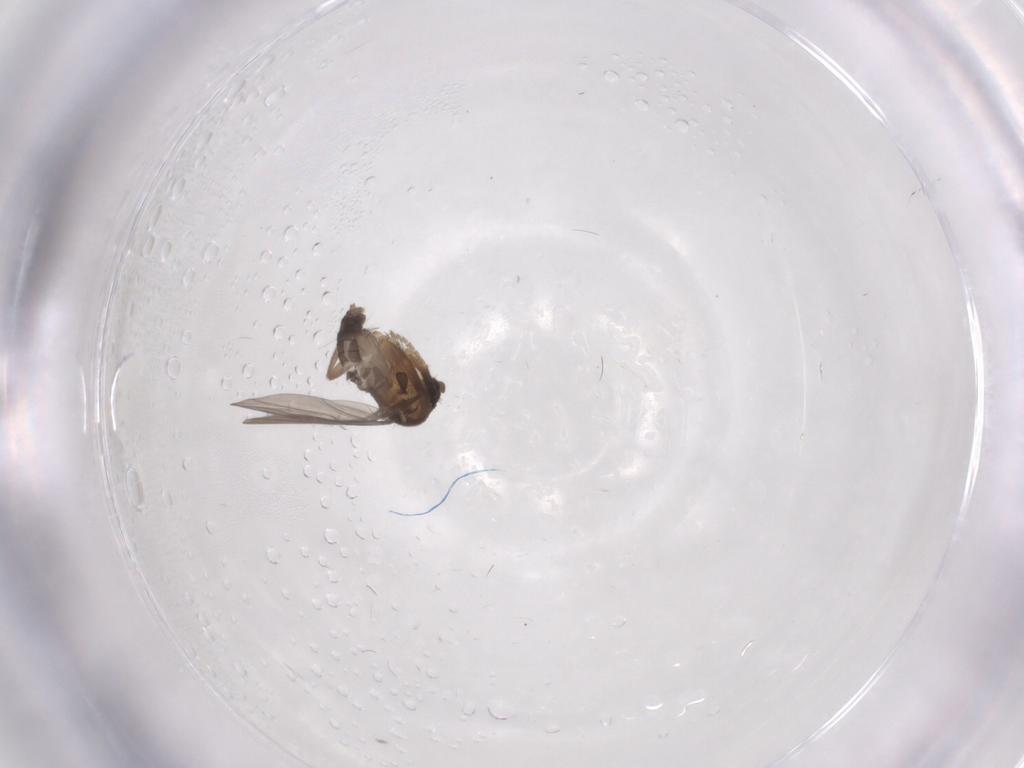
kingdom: Animalia
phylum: Arthropoda
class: Insecta
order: Diptera
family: Phoridae
